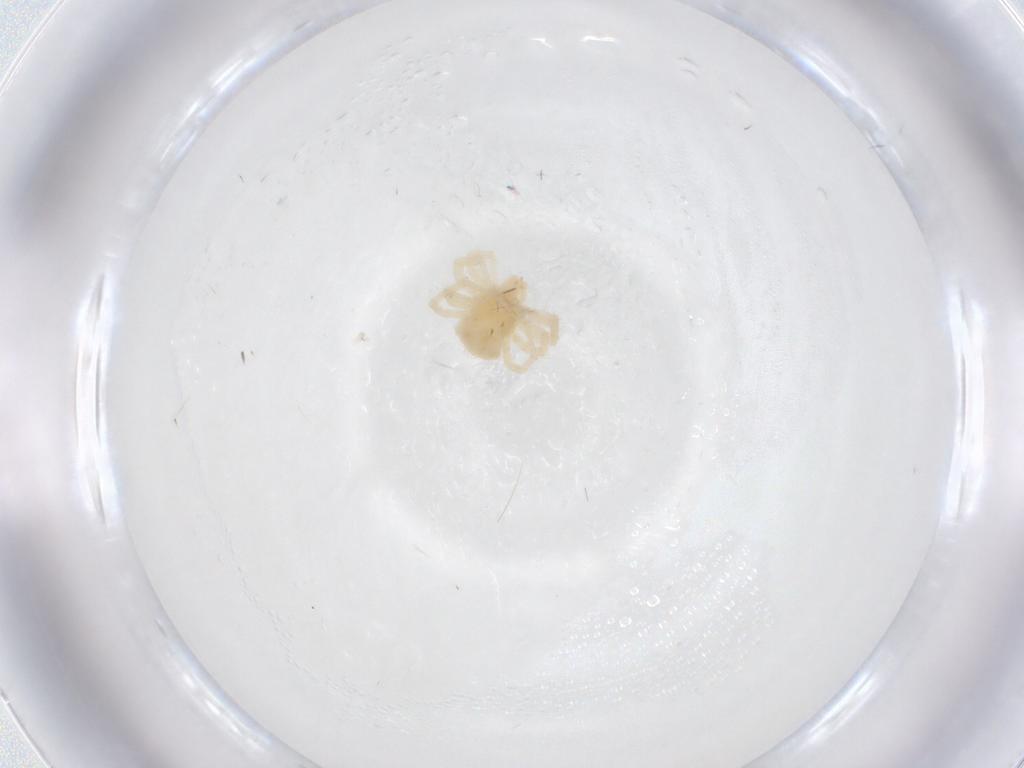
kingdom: Animalia
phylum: Arthropoda
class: Arachnida
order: Trombidiformes
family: Anystidae
